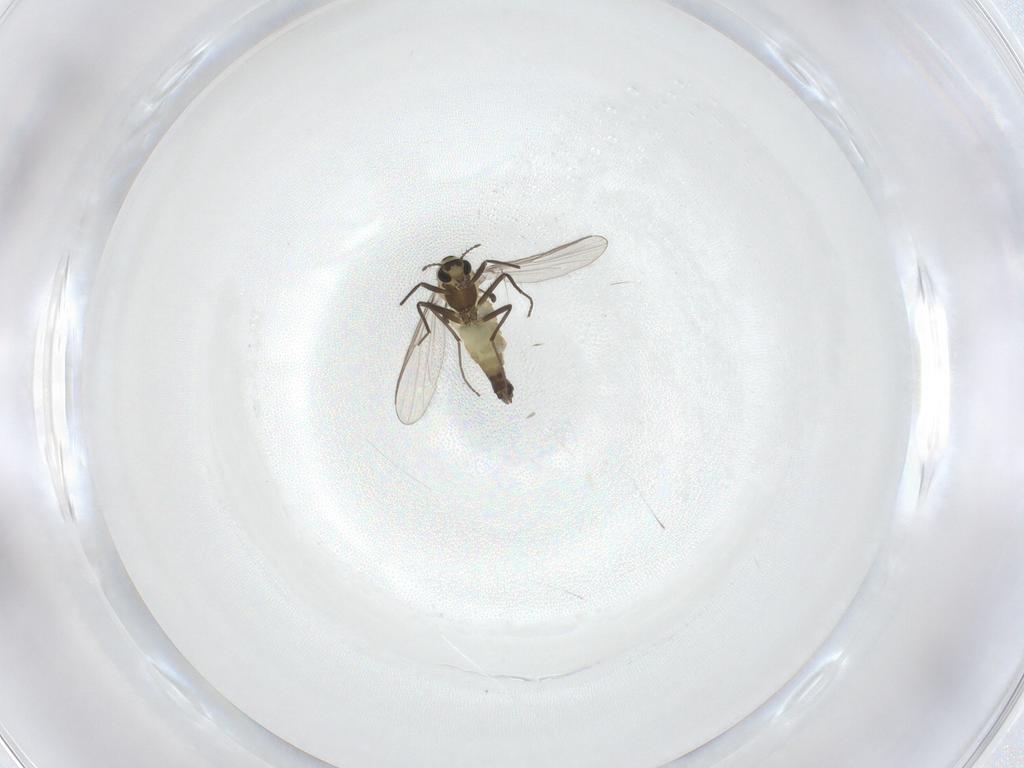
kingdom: Animalia
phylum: Arthropoda
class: Insecta
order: Diptera
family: Chironomidae
